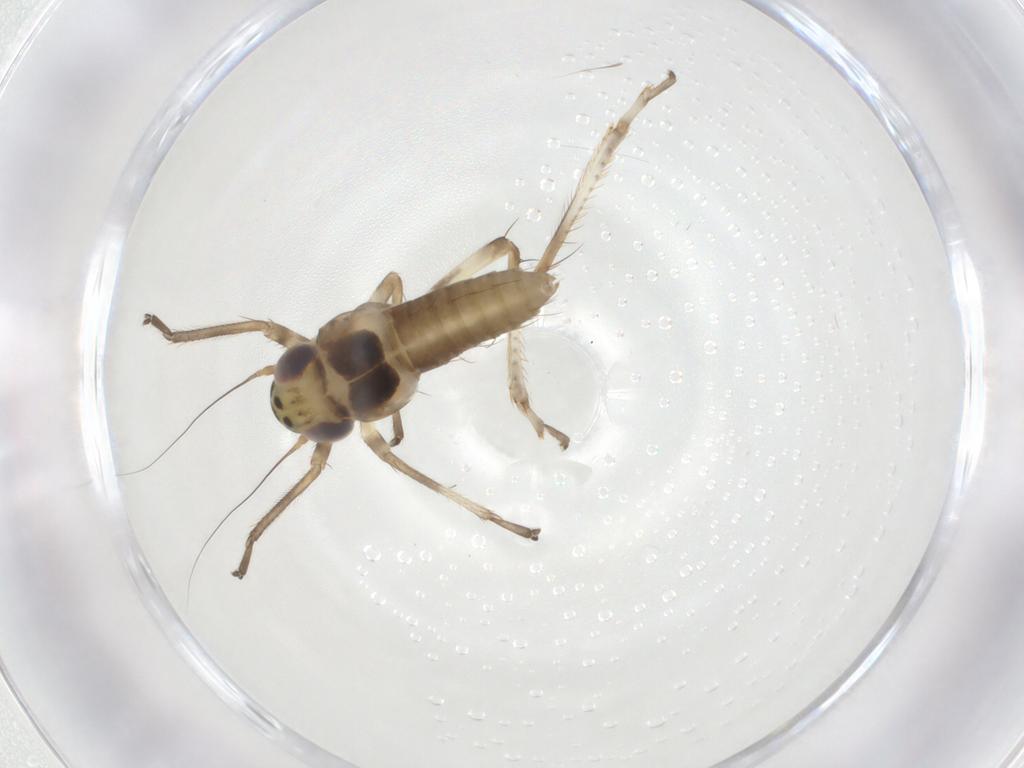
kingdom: Animalia
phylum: Arthropoda
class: Insecta
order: Hemiptera
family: Cicadellidae
